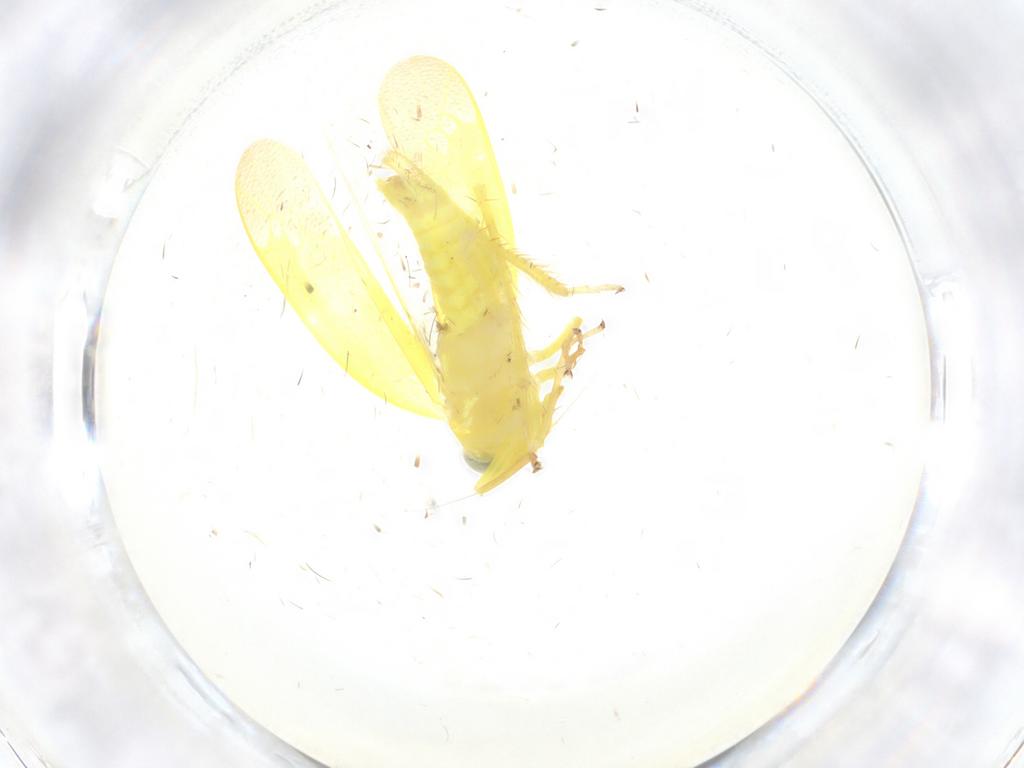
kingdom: Animalia
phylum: Arthropoda
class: Insecta
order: Hemiptera
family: Cicadellidae
